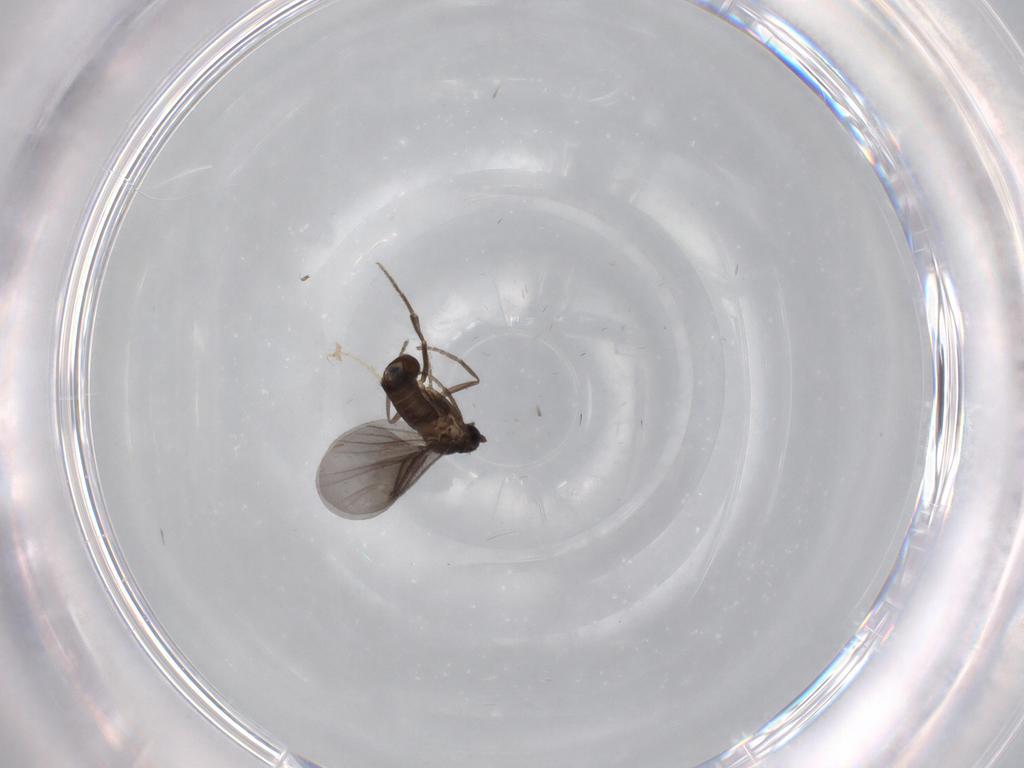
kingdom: Animalia
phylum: Arthropoda
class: Insecta
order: Diptera
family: Phoridae
